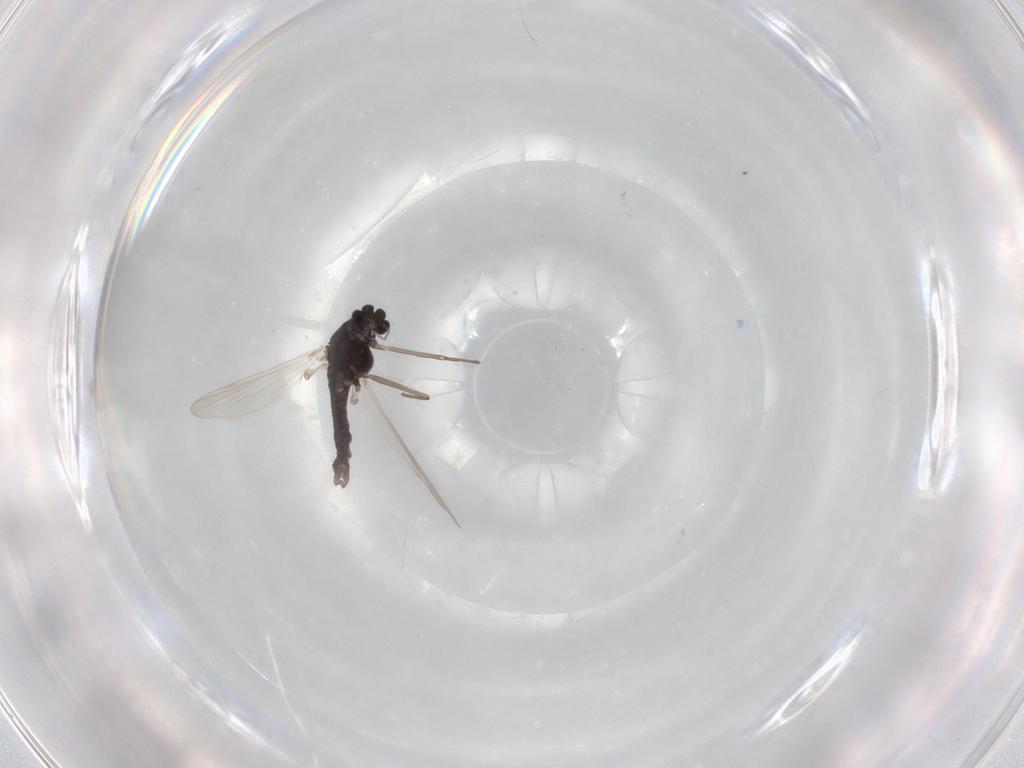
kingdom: Animalia
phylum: Arthropoda
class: Insecta
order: Diptera
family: Chironomidae
